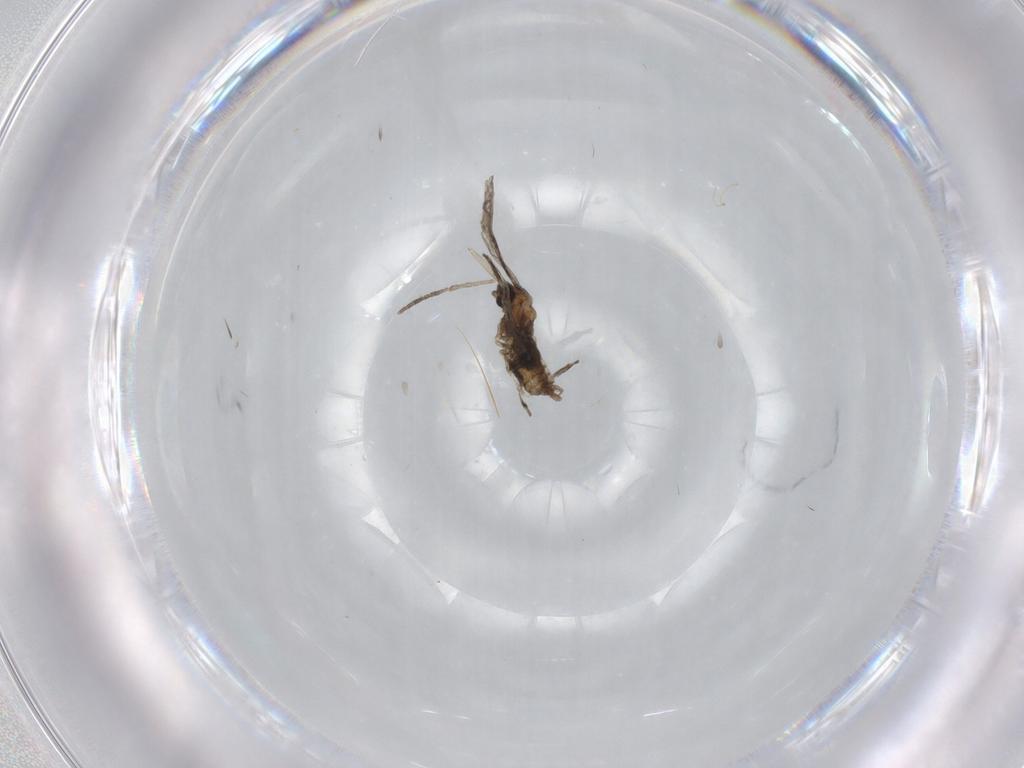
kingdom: Animalia
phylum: Arthropoda
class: Insecta
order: Diptera
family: Cecidomyiidae
